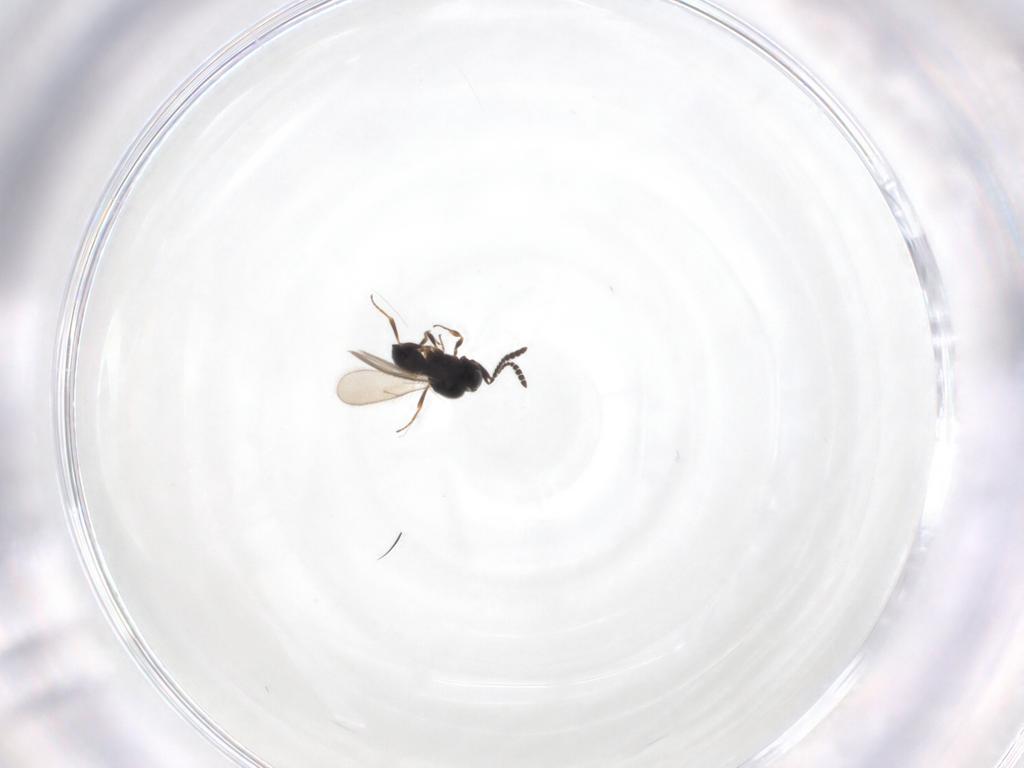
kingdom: Animalia
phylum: Arthropoda
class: Insecta
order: Hymenoptera
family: Scelionidae
